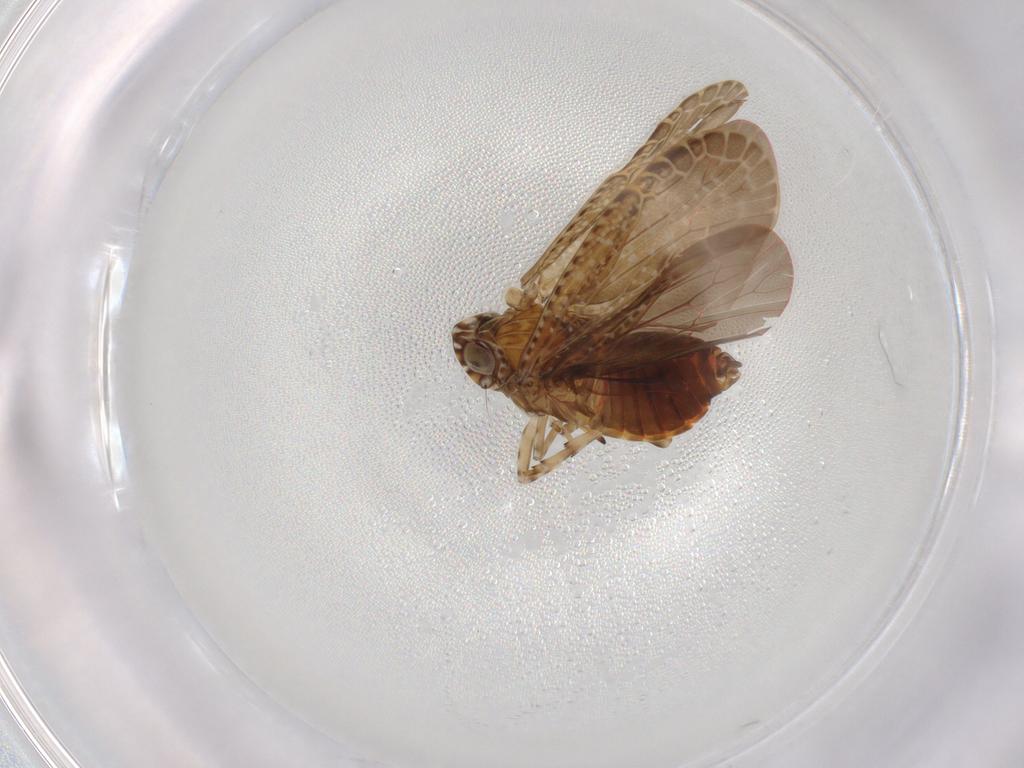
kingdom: Animalia
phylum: Arthropoda
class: Insecta
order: Hemiptera
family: Achilidae
